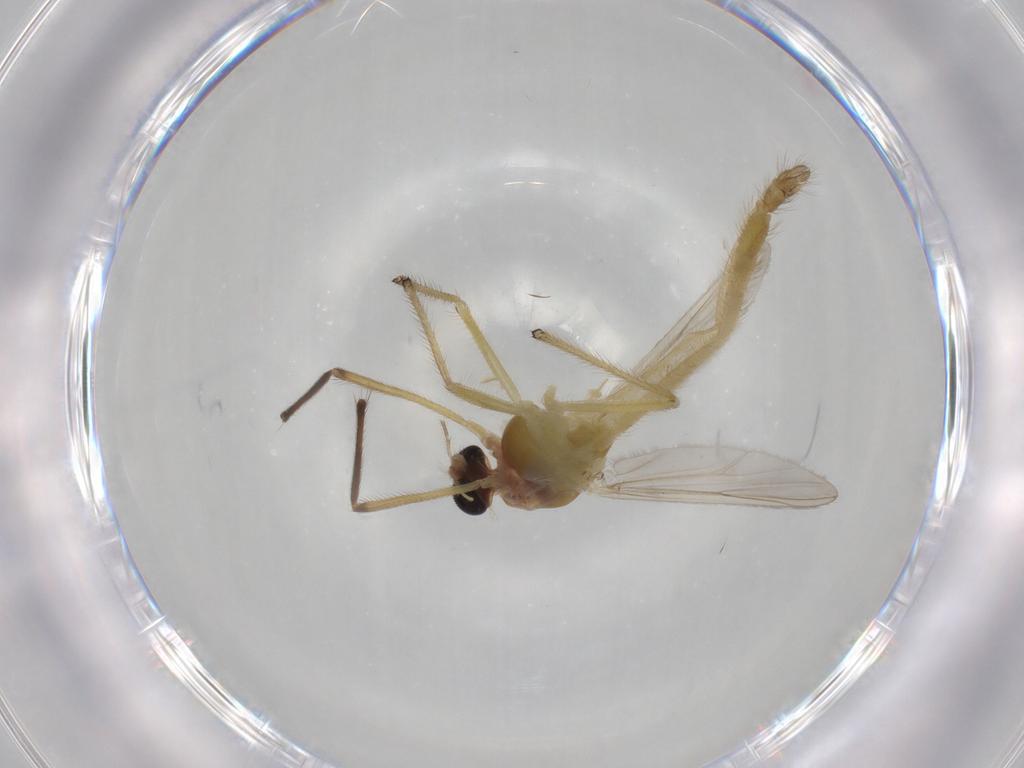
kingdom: Animalia
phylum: Arthropoda
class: Insecta
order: Diptera
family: Chironomidae
